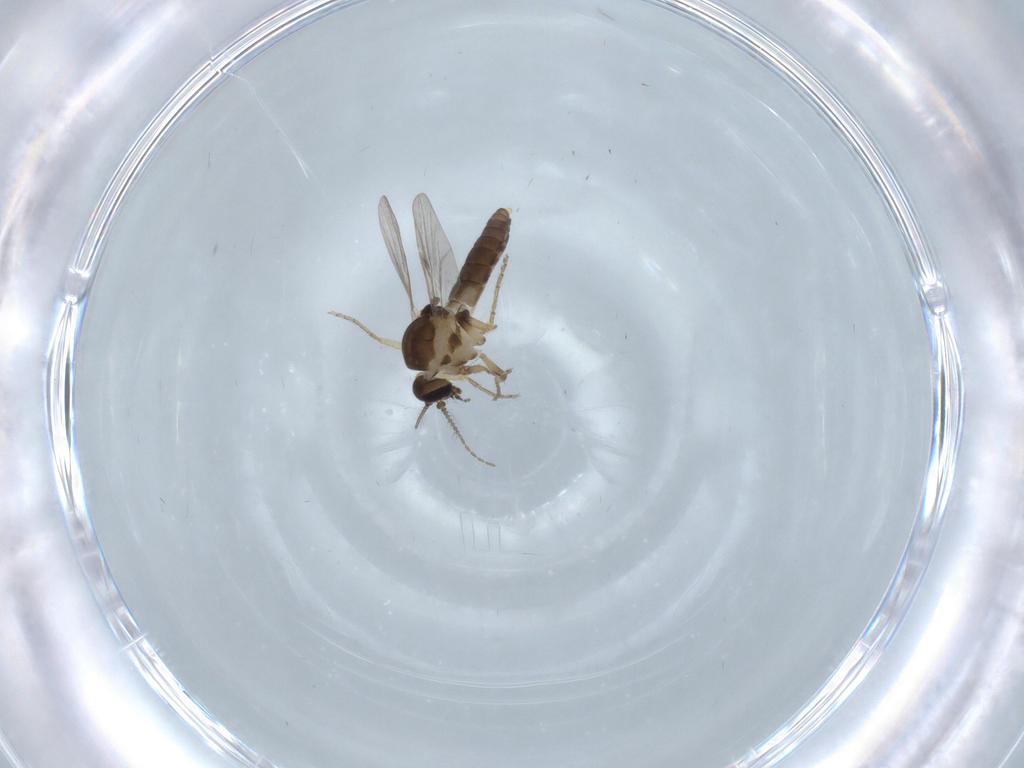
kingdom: Animalia
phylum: Arthropoda
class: Insecta
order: Diptera
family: Ceratopogonidae
